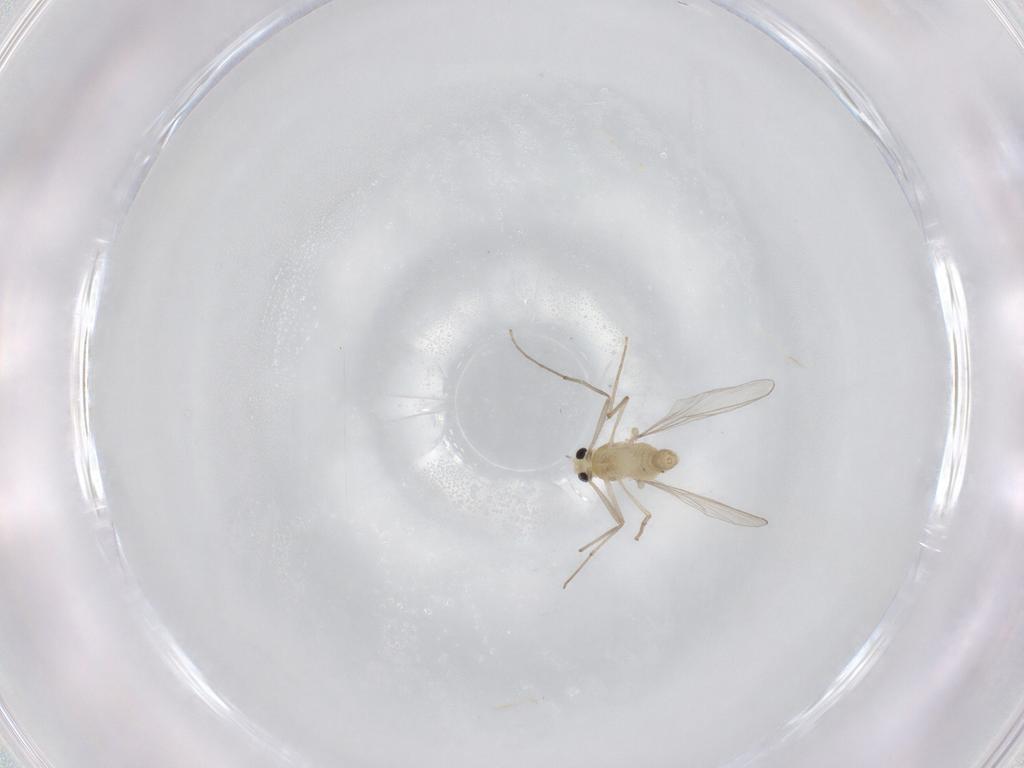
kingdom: Animalia
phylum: Arthropoda
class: Insecta
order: Diptera
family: Chironomidae
